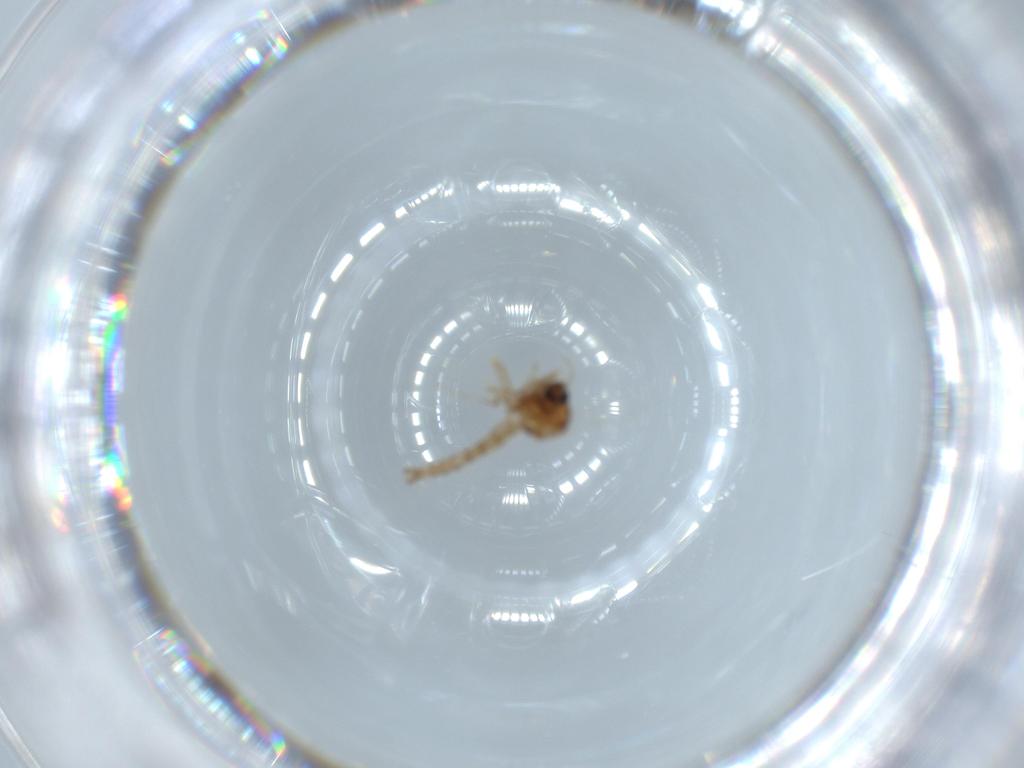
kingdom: Animalia
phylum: Arthropoda
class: Insecta
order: Diptera
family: Ceratopogonidae
